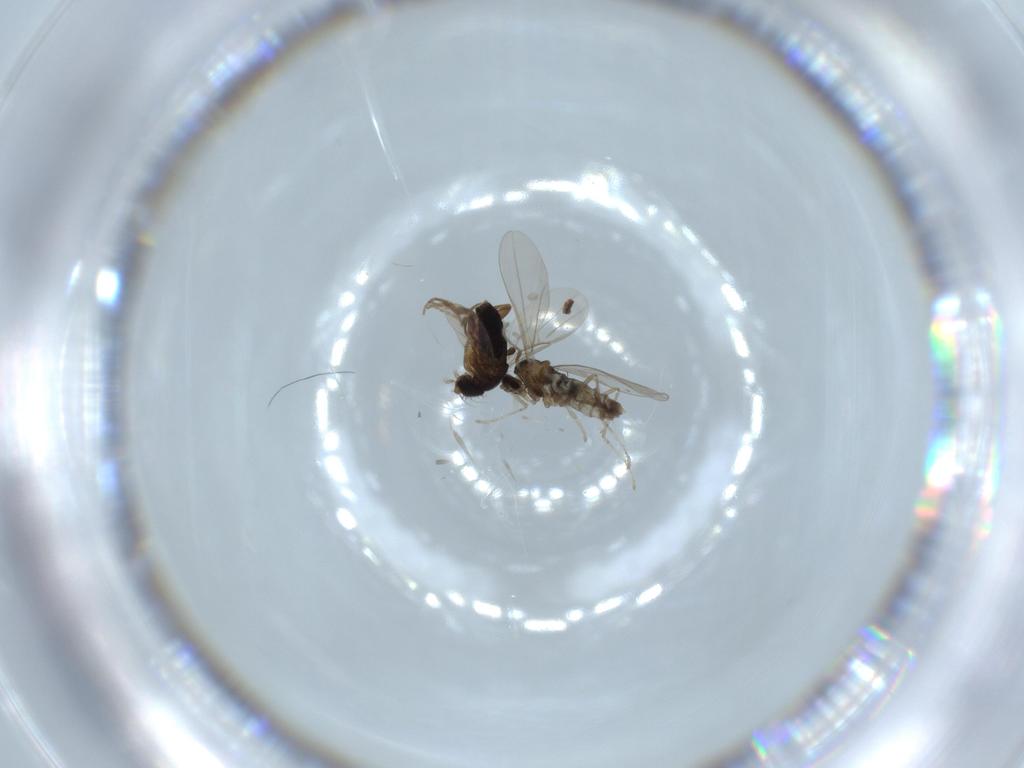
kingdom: Animalia
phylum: Arthropoda
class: Insecta
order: Diptera
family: Cecidomyiidae
